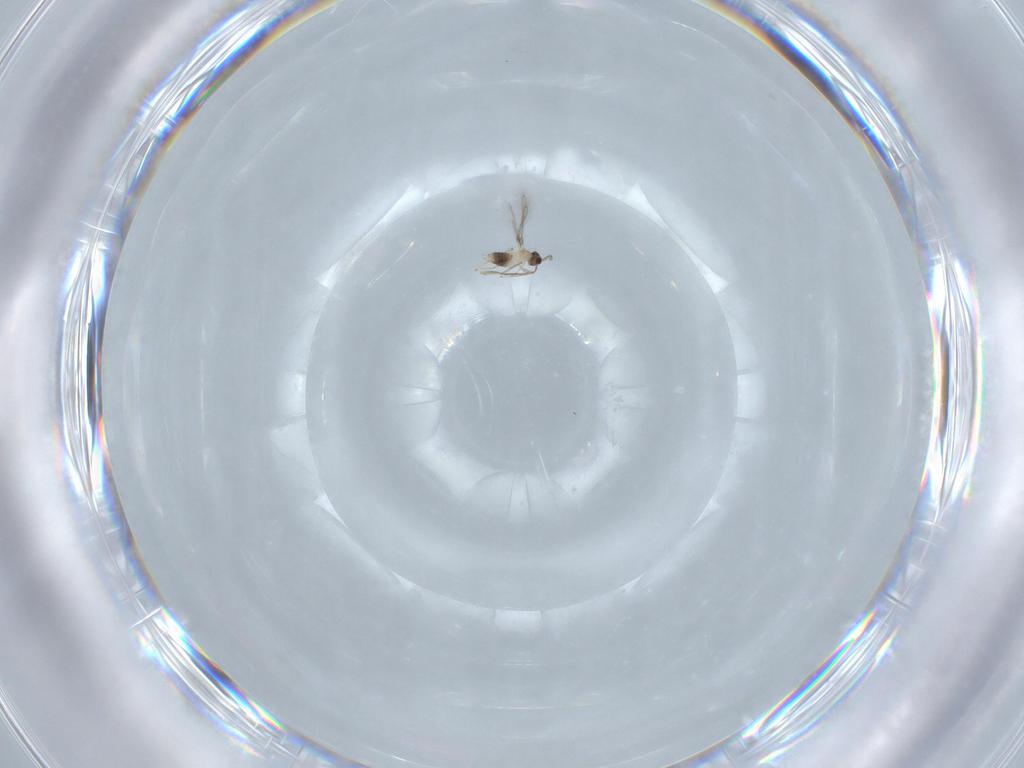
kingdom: Animalia
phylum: Arthropoda
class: Insecta
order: Hymenoptera
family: Mymaridae
